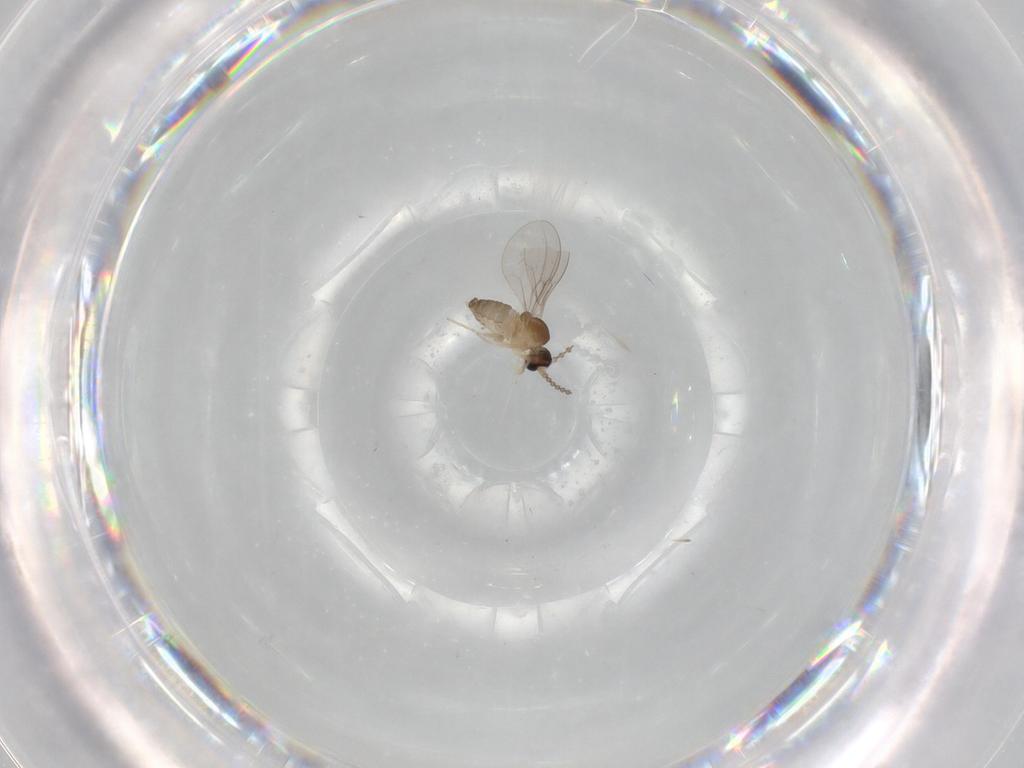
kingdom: Animalia
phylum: Arthropoda
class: Insecta
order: Diptera
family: Cecidomyiidae
